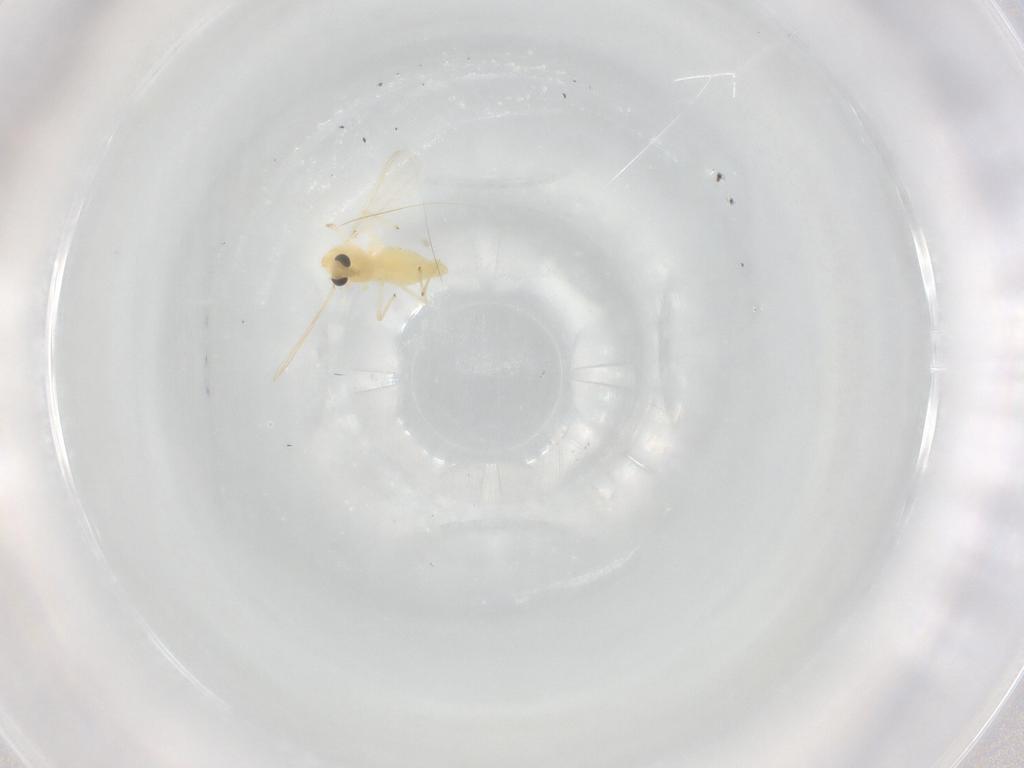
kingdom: Animalia
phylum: Arthropoda
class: Insecta
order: Diptera
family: Chironomidae
